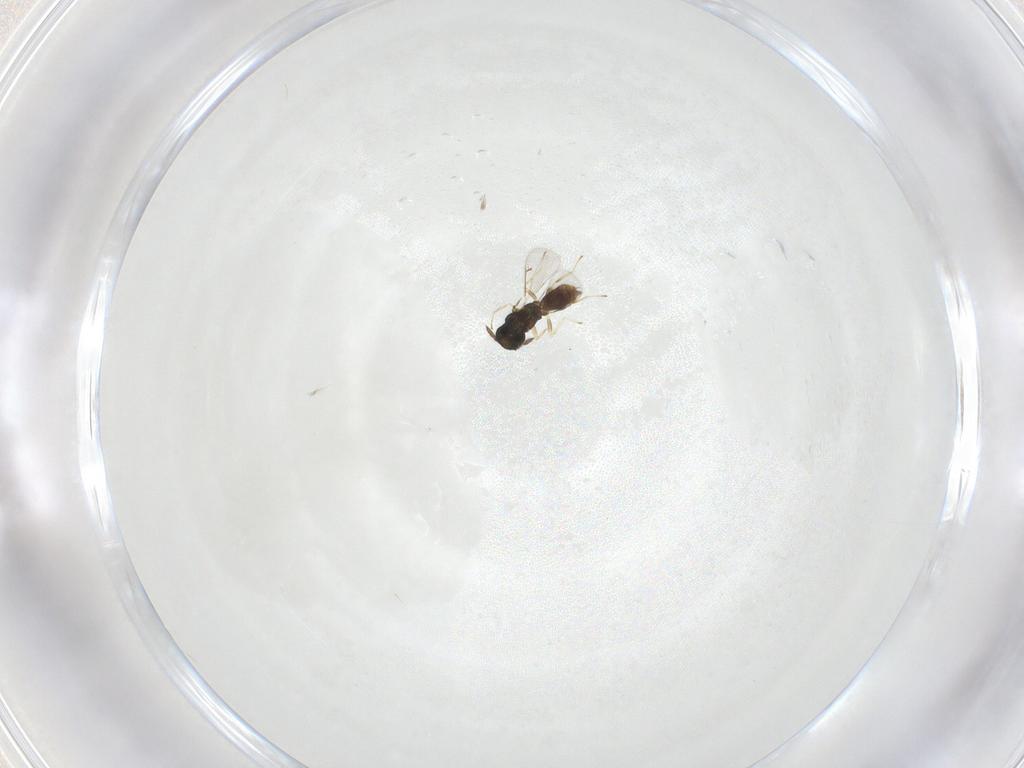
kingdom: Animalia
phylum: Arthropoda
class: Insecta
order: Hymenoptera
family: Eulophidae
